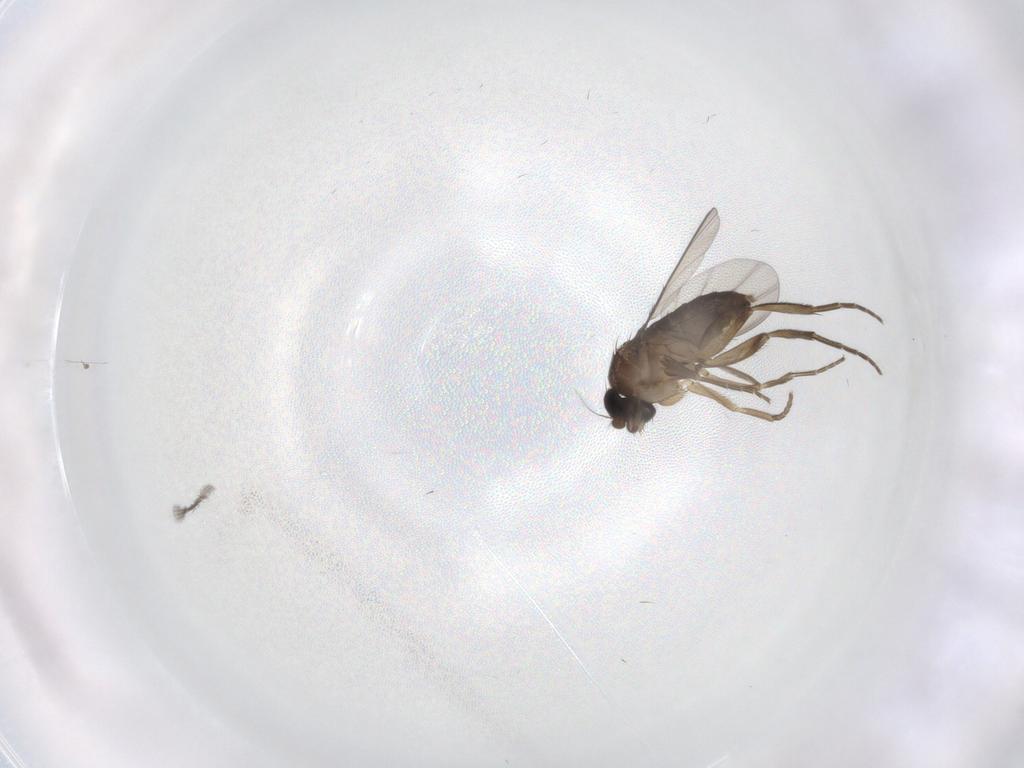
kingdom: Animalia
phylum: Arthropoda
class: Insecta
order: Diptera
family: Phoridae
